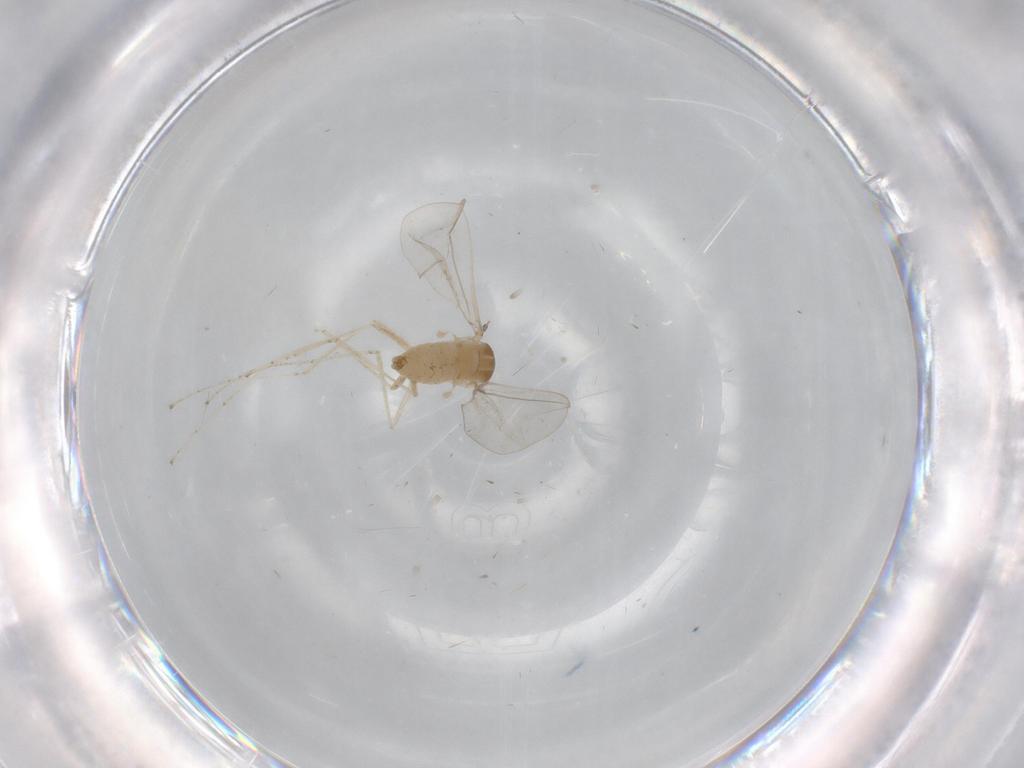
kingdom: Animalia
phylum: Arthropoda
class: Insecta
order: Diptera
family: Cecidomyiidae
